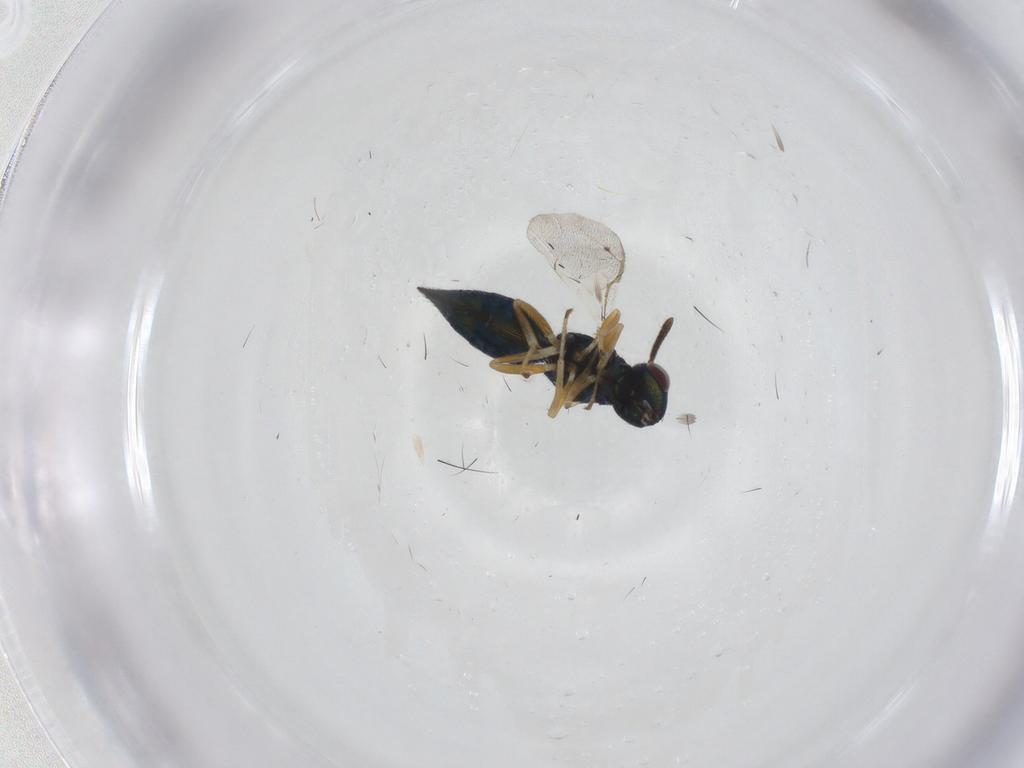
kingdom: Animalia
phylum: Arthropoda
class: Insecta
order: Hymenoptera
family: Pteromalidae
